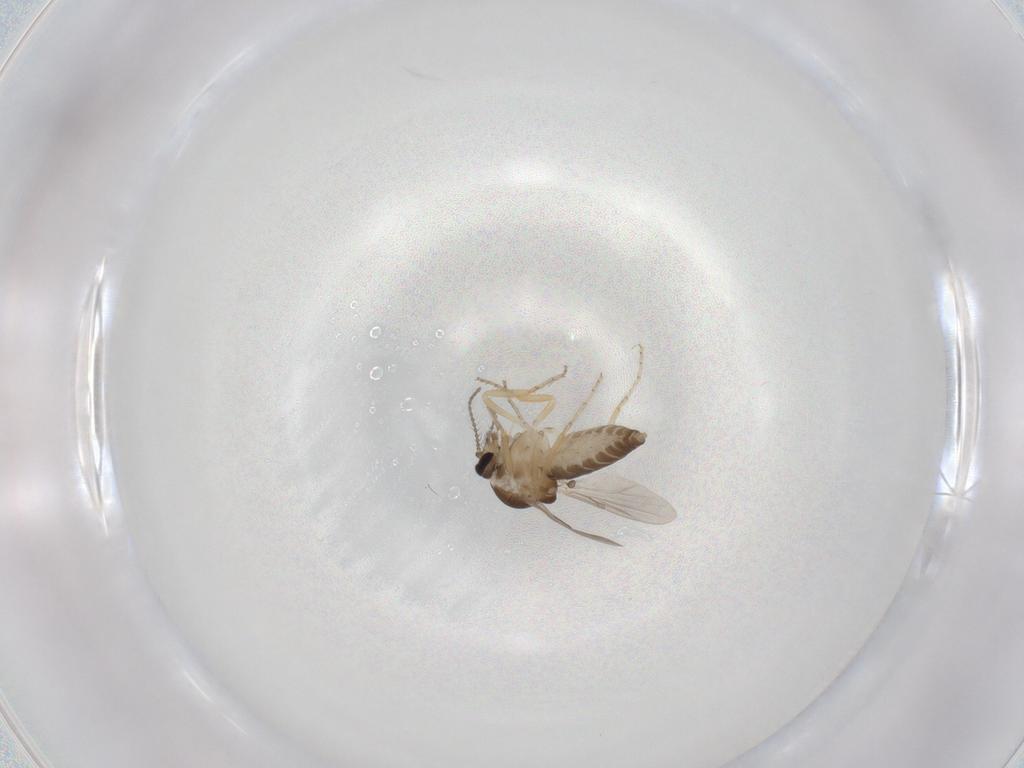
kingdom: Animalia
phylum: Arthropoda
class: Insecta
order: Diptera
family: Ceratopogonidae
